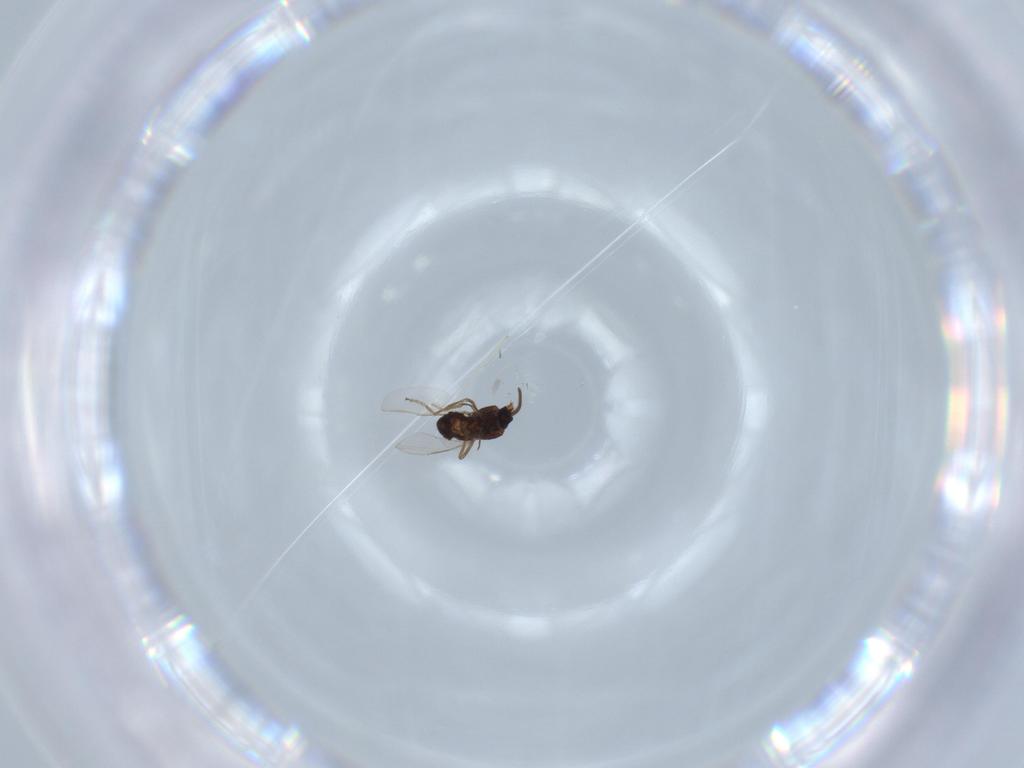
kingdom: Animalia
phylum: Arthropoda
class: Insecta
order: Diptera
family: Ceratopogonidae
